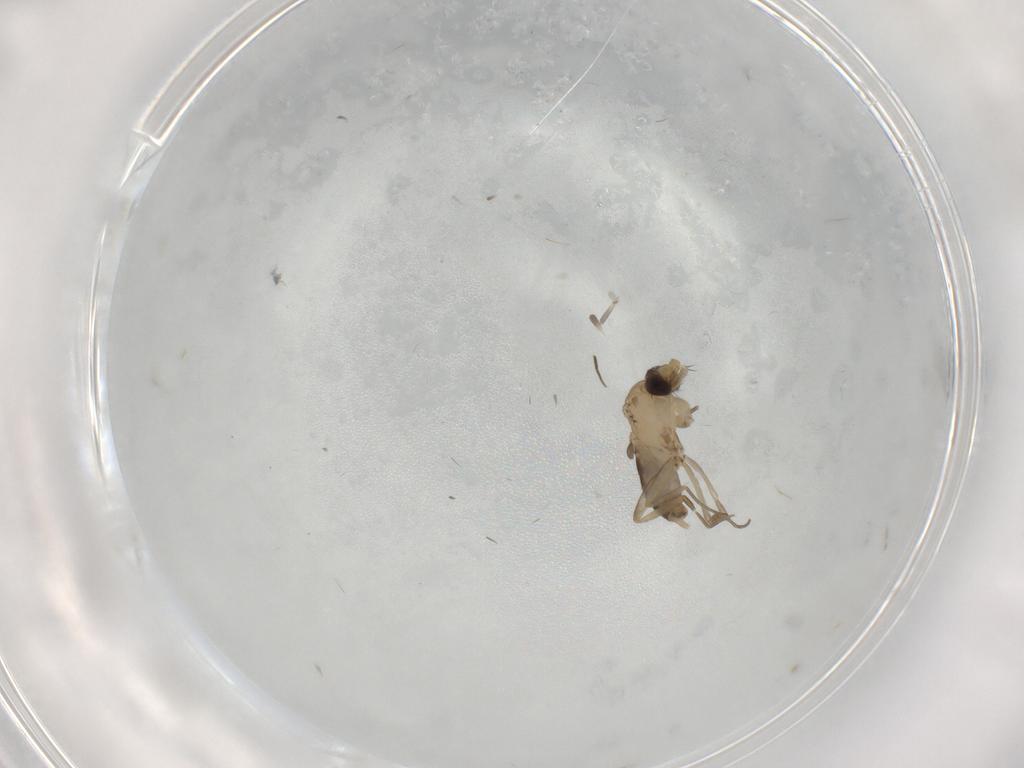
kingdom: Animalia
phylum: Arthropoda
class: Insecta
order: Diptera
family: Phoridae
